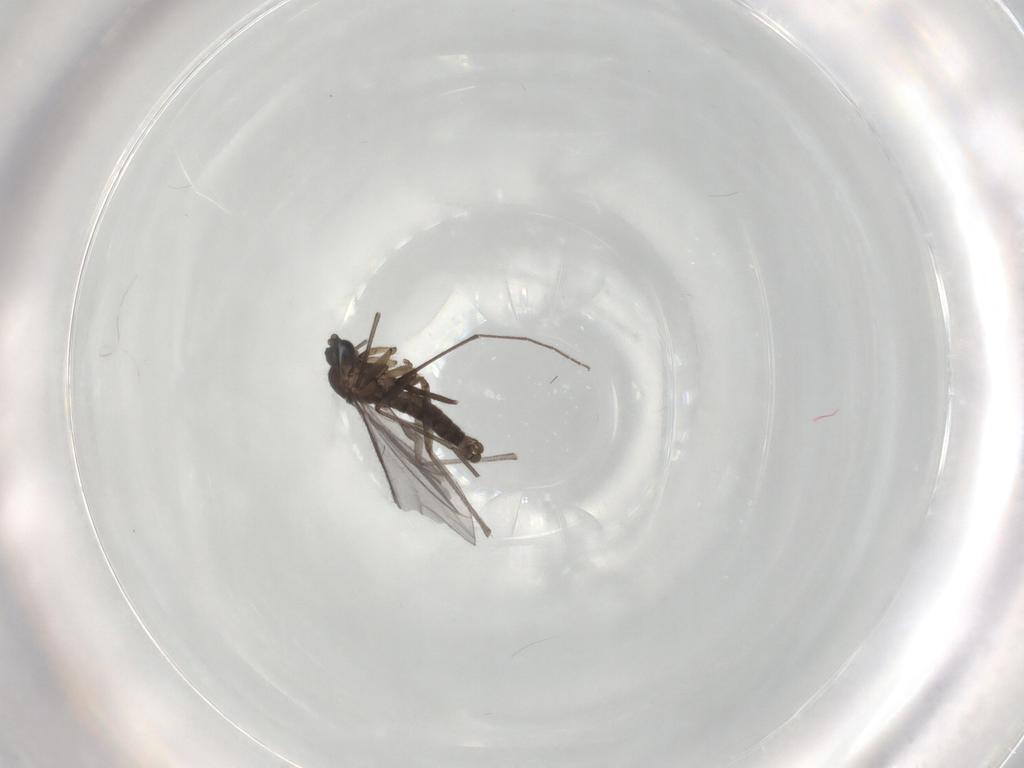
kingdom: Animalia
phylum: Arthropoda
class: Insecta
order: Diptera
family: Sciaridae
